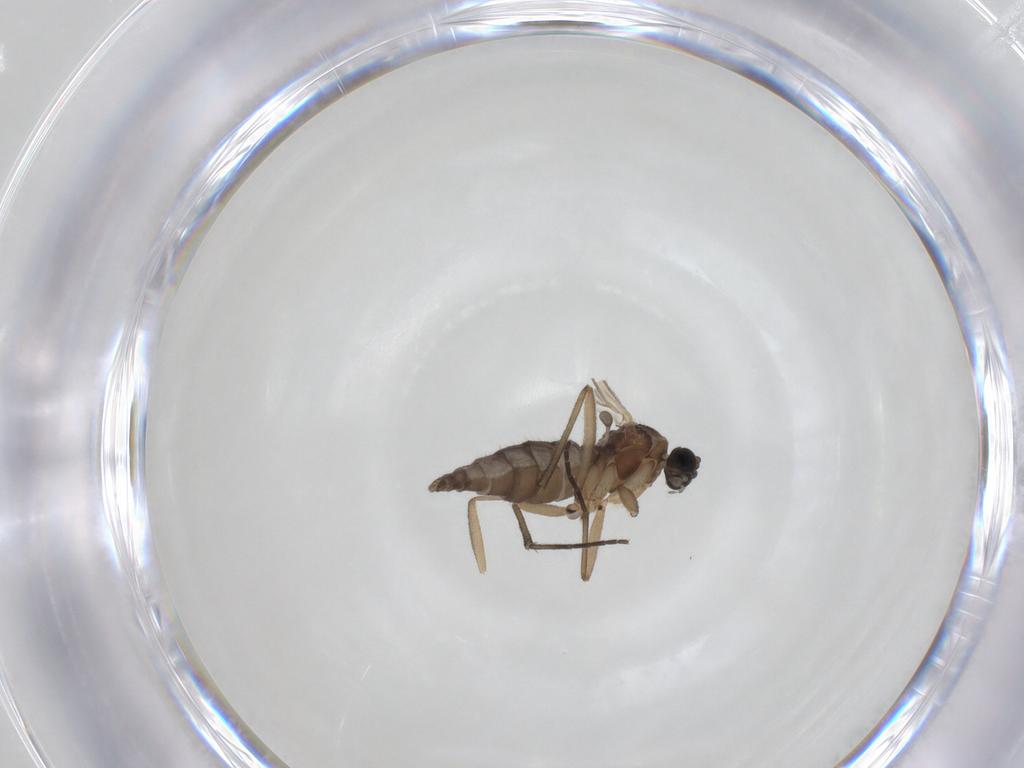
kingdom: Animalia
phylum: Arthropoda
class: Insecta
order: Diptera
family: Sciaridae
